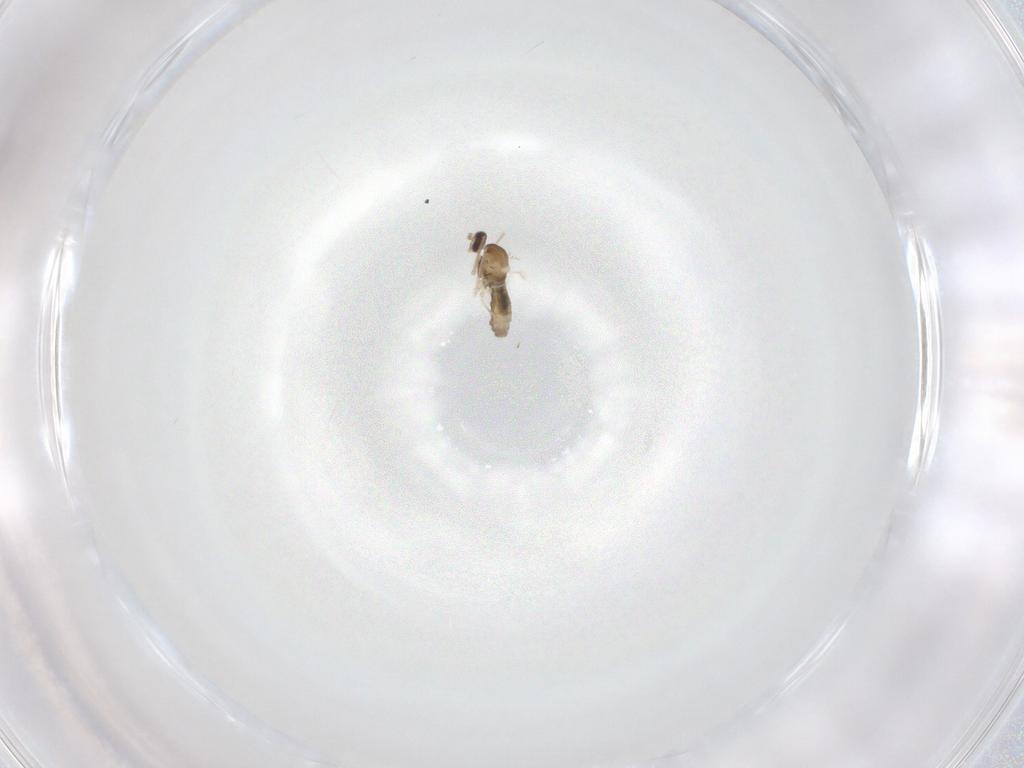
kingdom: Animalia
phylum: Arthropoda
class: Insecta
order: Diptera
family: Cecidomyiidae
